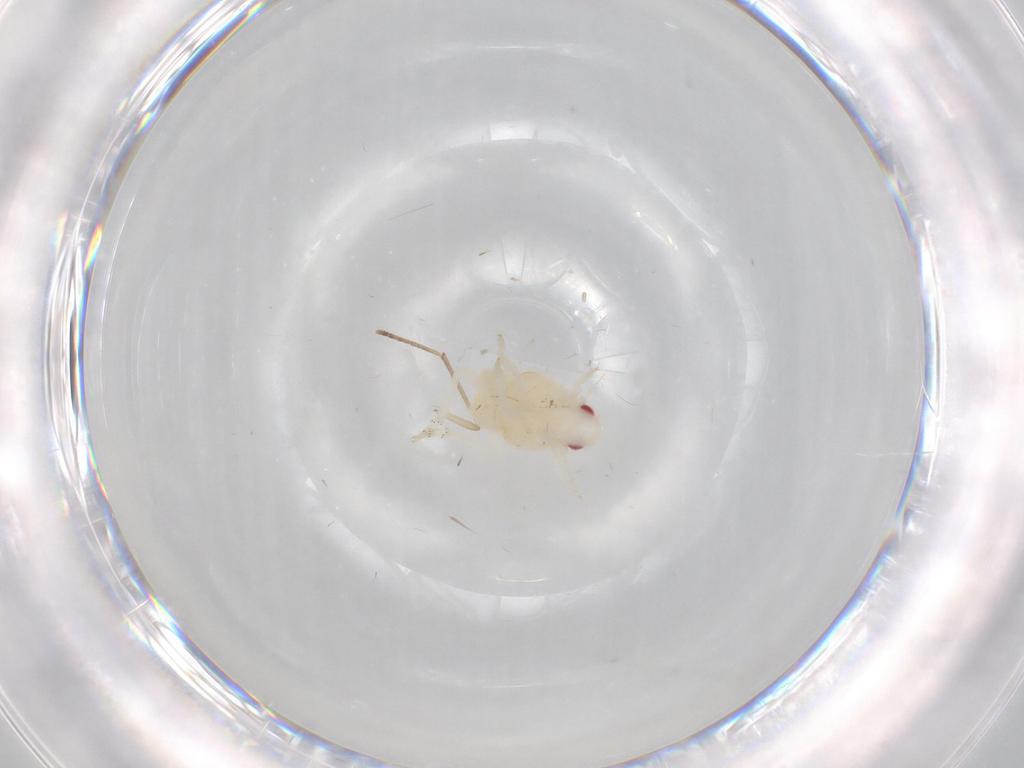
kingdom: Animalia
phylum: Arthropoda
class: Insecta
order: Hemiptera
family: Flatidae
